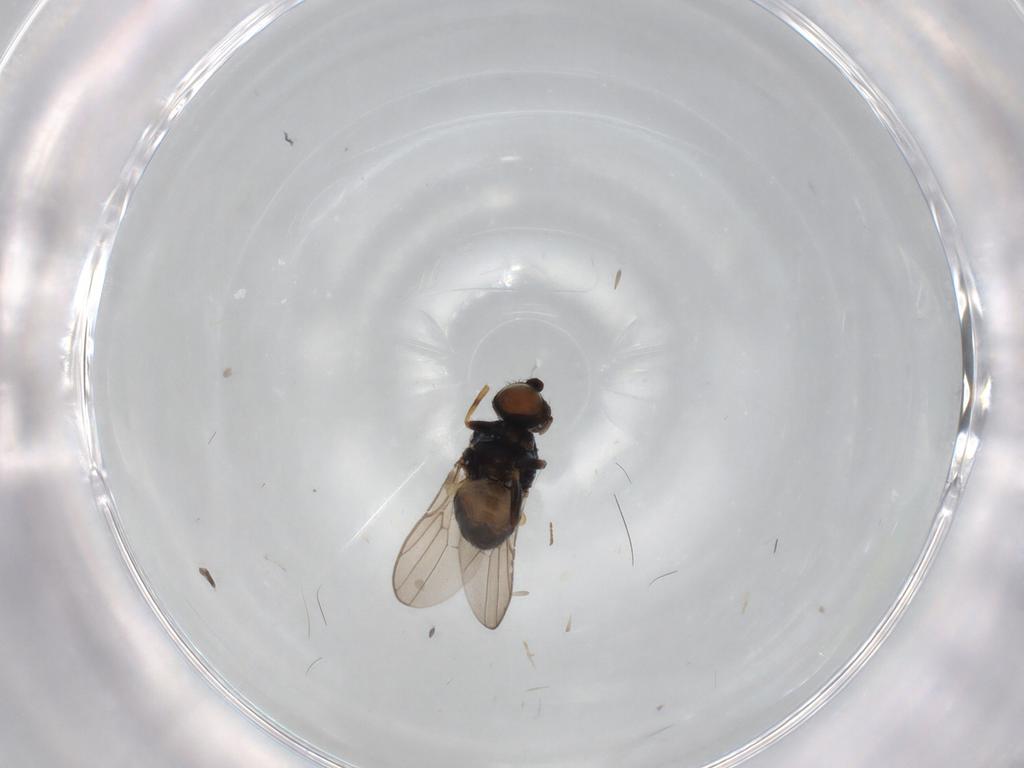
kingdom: Animalia
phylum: Arthropoda
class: Insecta
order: Diptera
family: Chloropidae
